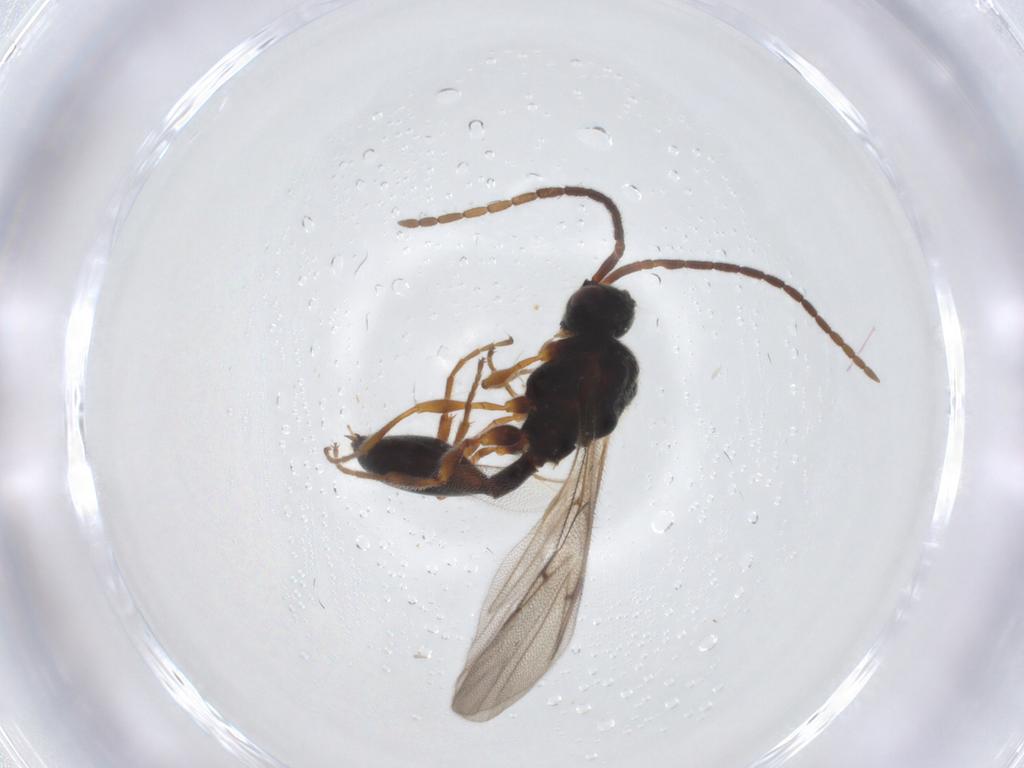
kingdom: Animalia
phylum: Arthropoda
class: Insecta
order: Hymenoptera
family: Diapriidae
